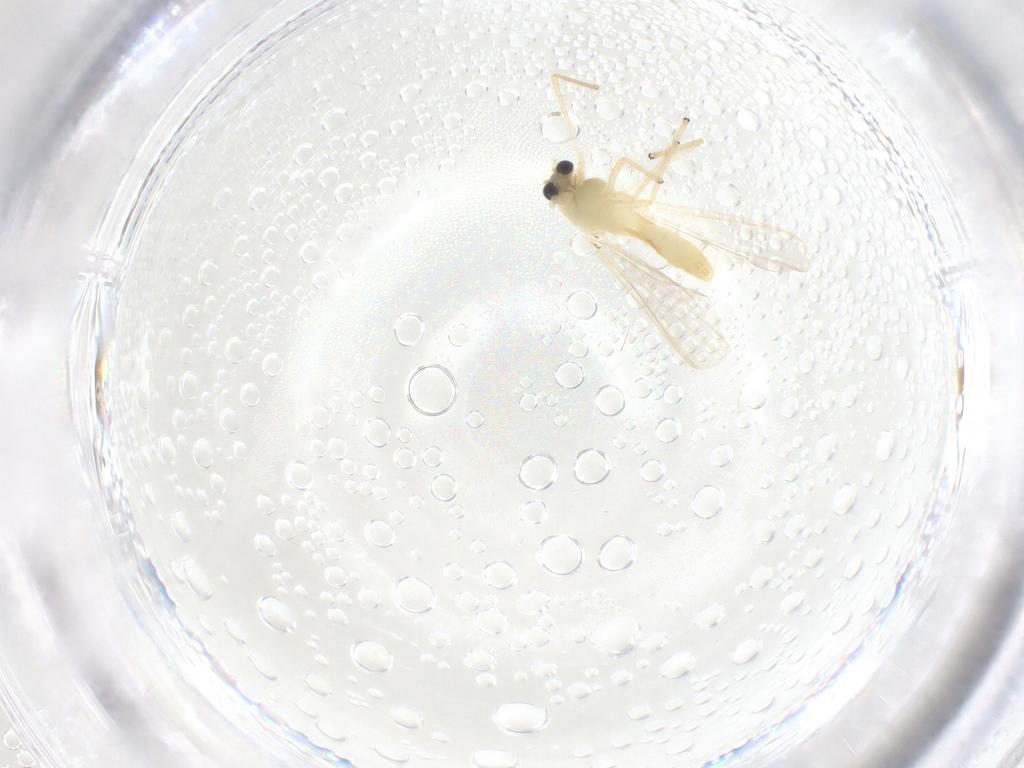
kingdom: Animalia
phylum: Arthropoda
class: Insecta
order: Diptera
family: Chironomidae
